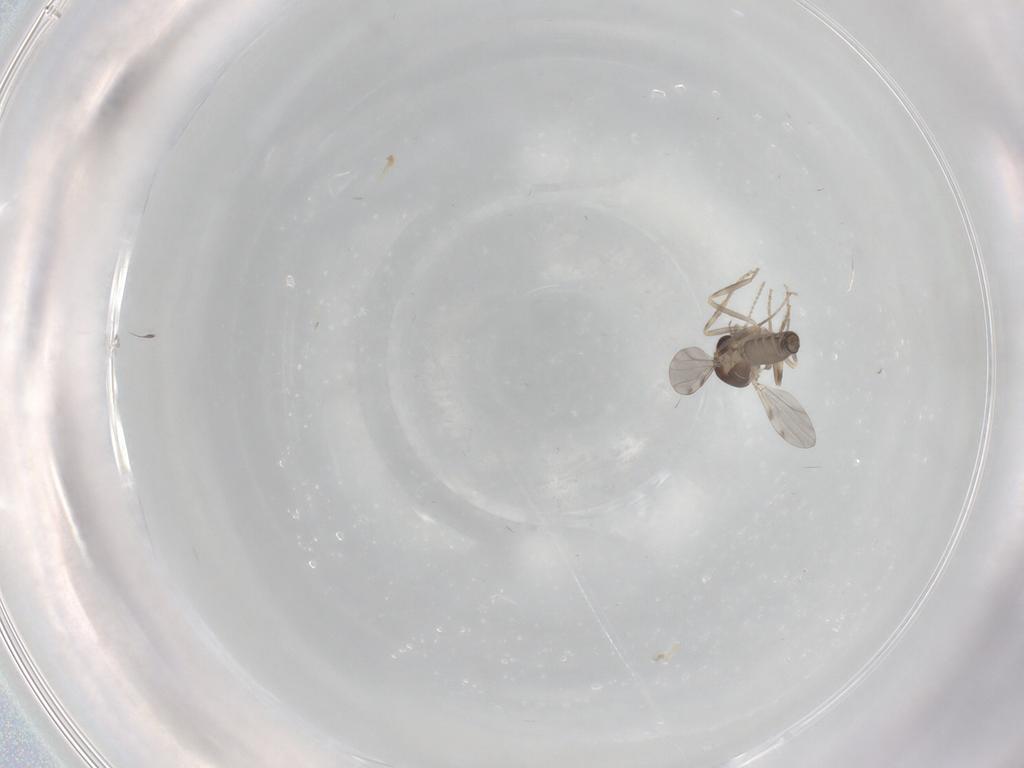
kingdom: Animalia
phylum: Arthropoda
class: Insecta
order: Diptera
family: Ceratopogonidae
